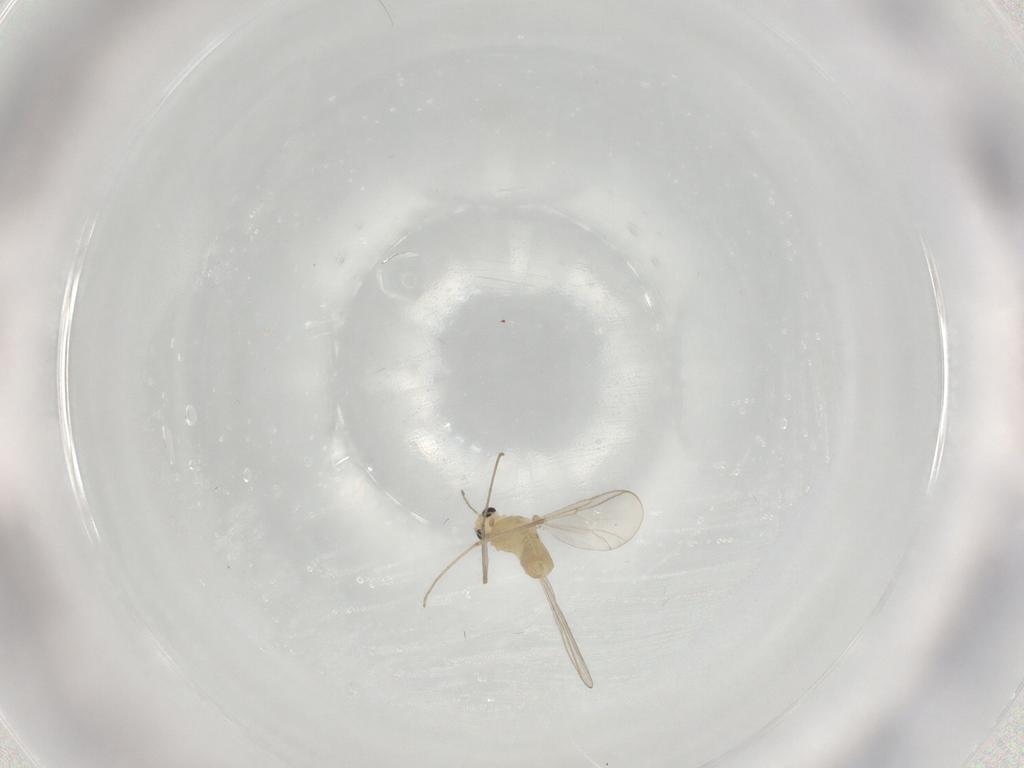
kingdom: Animalia
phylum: Arthropoda
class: Insecta
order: Diptera
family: Chironomidae
